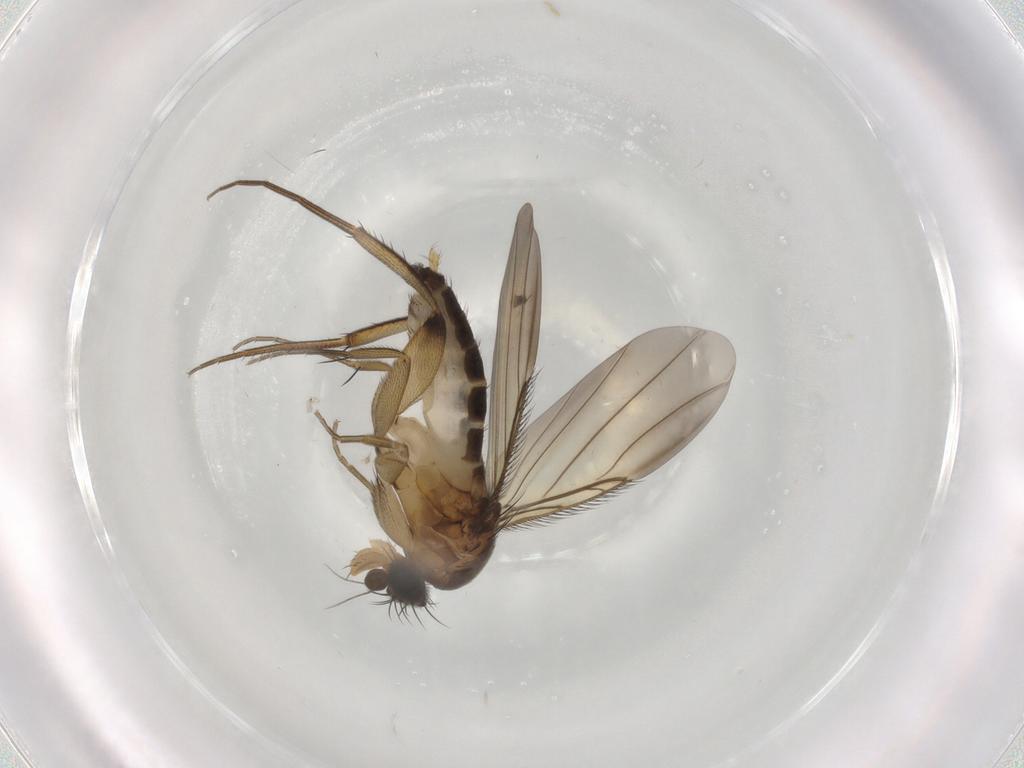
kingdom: Animalia
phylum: Arthropoda
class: Insecta
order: Diptera
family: Phoridae
